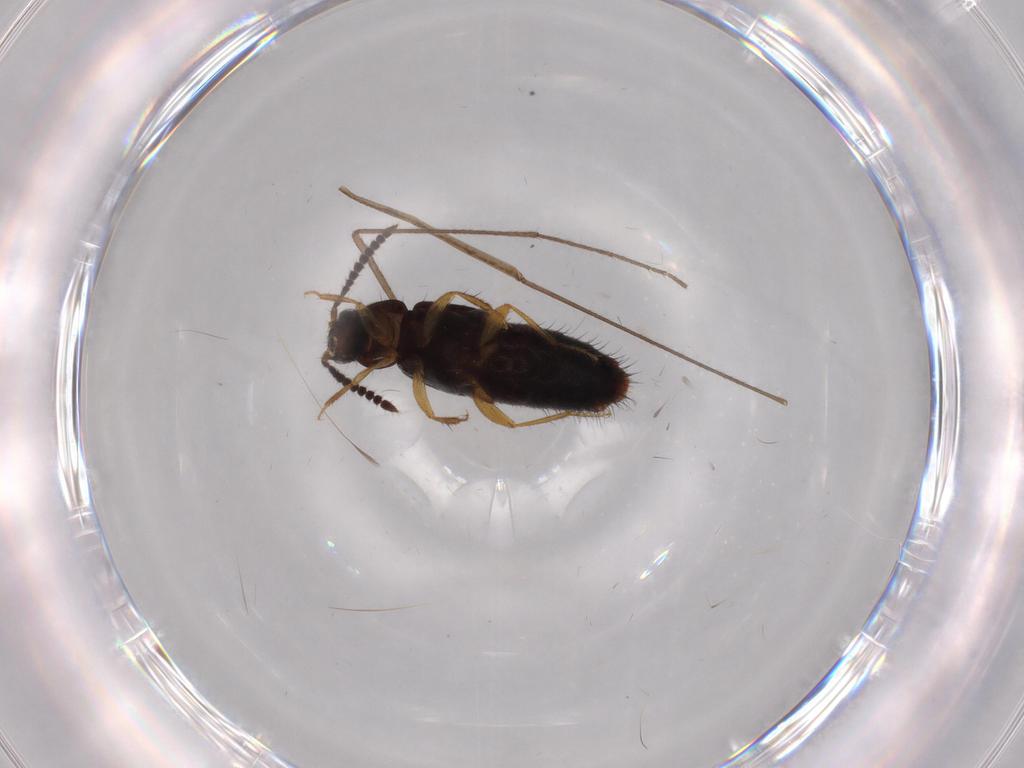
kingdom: Animalia
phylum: Arthropoda
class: Insecta
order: Coleoptera
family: Staphylinidae
